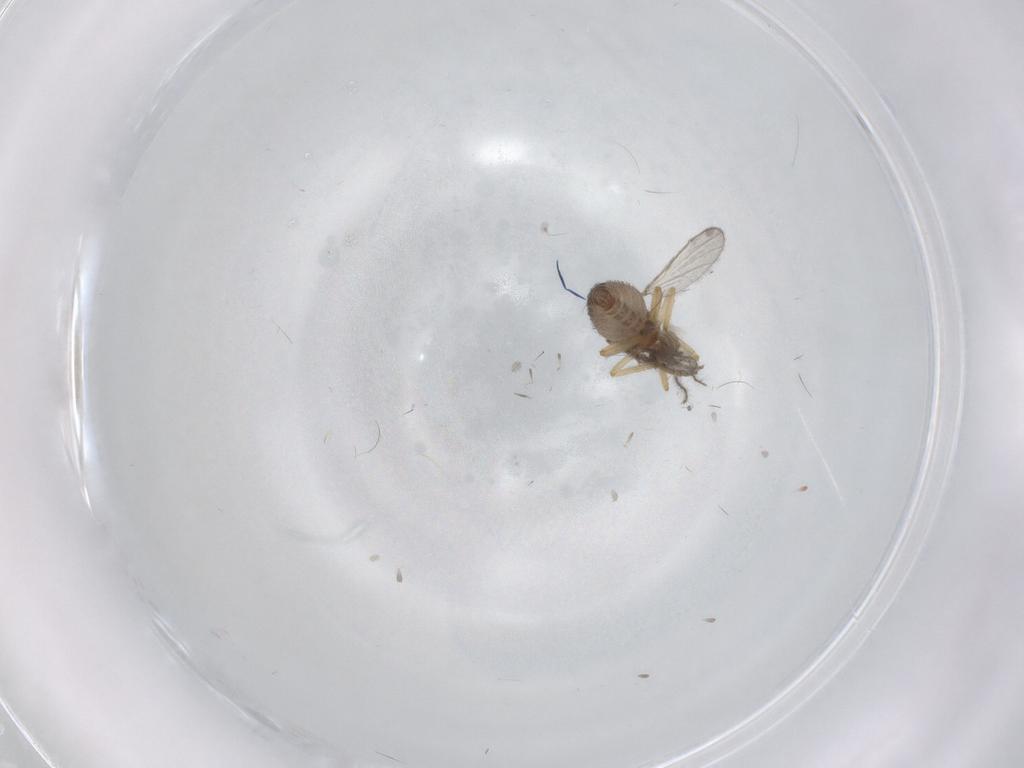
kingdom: Animalia
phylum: Arthropoda
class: Insecta
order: Diptera
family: Ceratopogonidae
